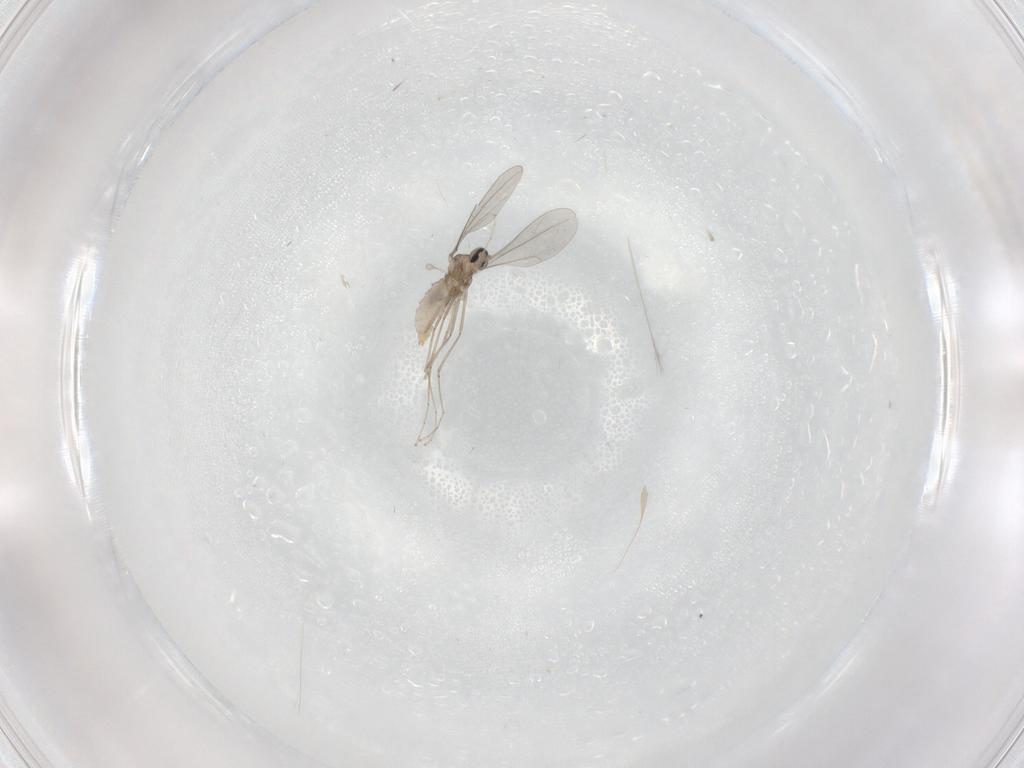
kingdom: Animalia
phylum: Arthropoda
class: Insecta
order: Diptera
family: Cecidomyiidae
